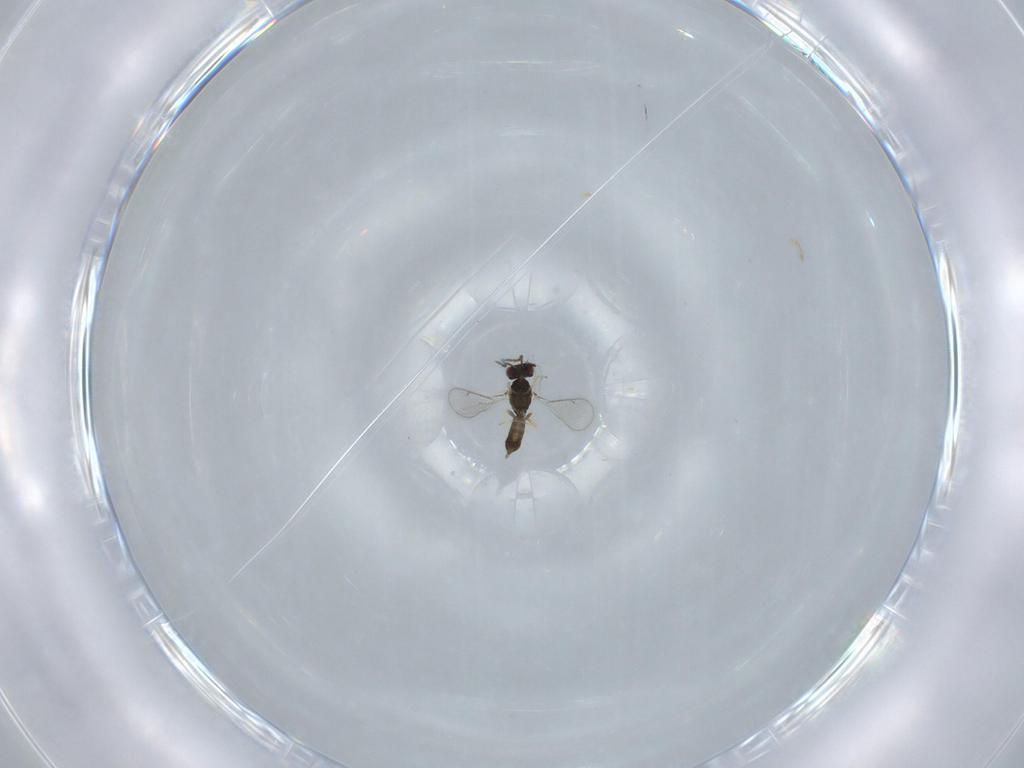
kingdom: Animalia
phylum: Arthropoda
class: Insecta
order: Hymenoptera
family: Eulophidae
